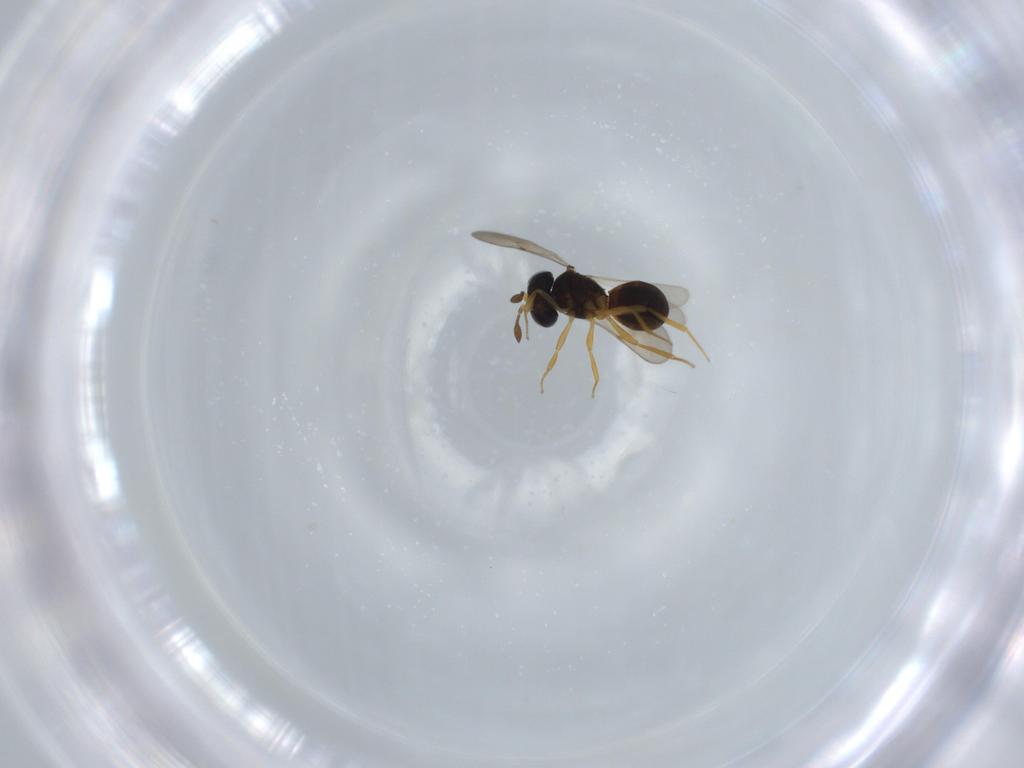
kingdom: Animalia
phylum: Arthropoda
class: Insecta
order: Hymenoptera
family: Scelionidae
